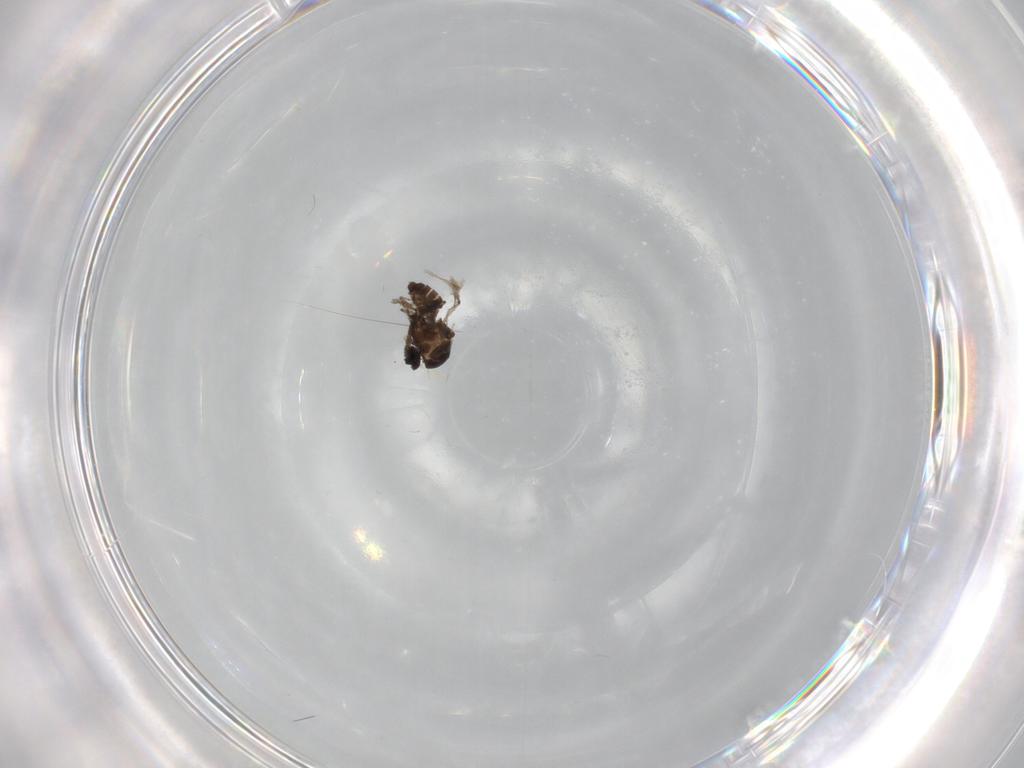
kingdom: Animalia
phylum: Arthropoda
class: Insecta
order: Diptera
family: Ceratopogonidae
